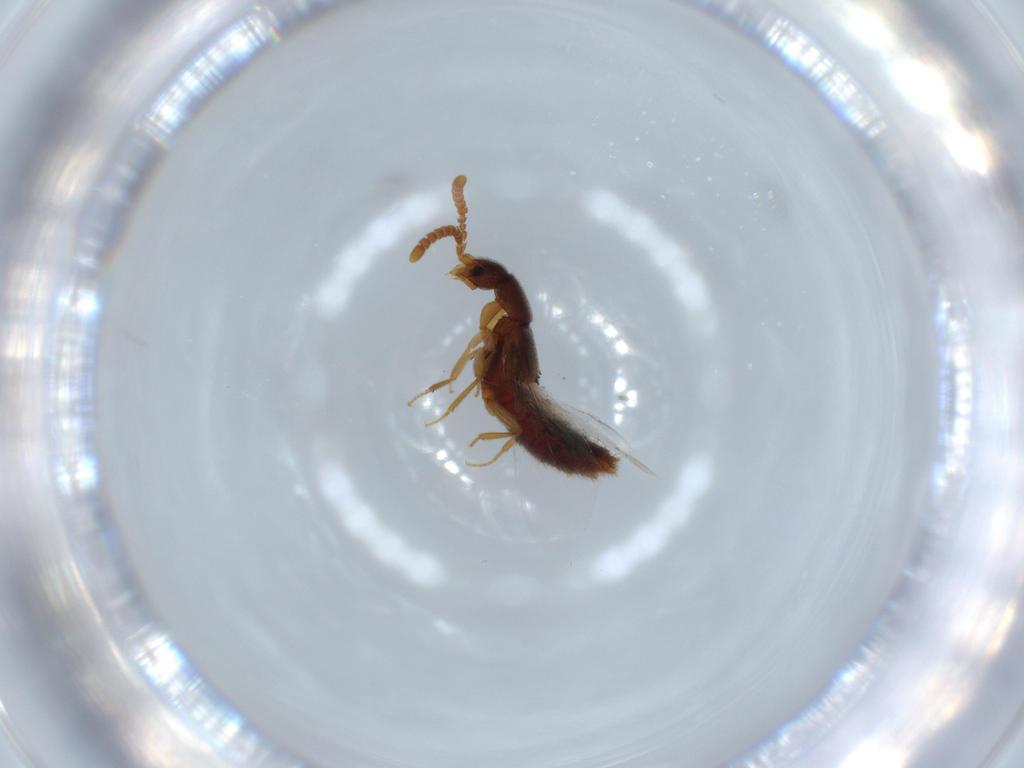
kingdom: Animalia
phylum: Arthropoda
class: Insecta
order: Coleoptera
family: Staphylinidae
